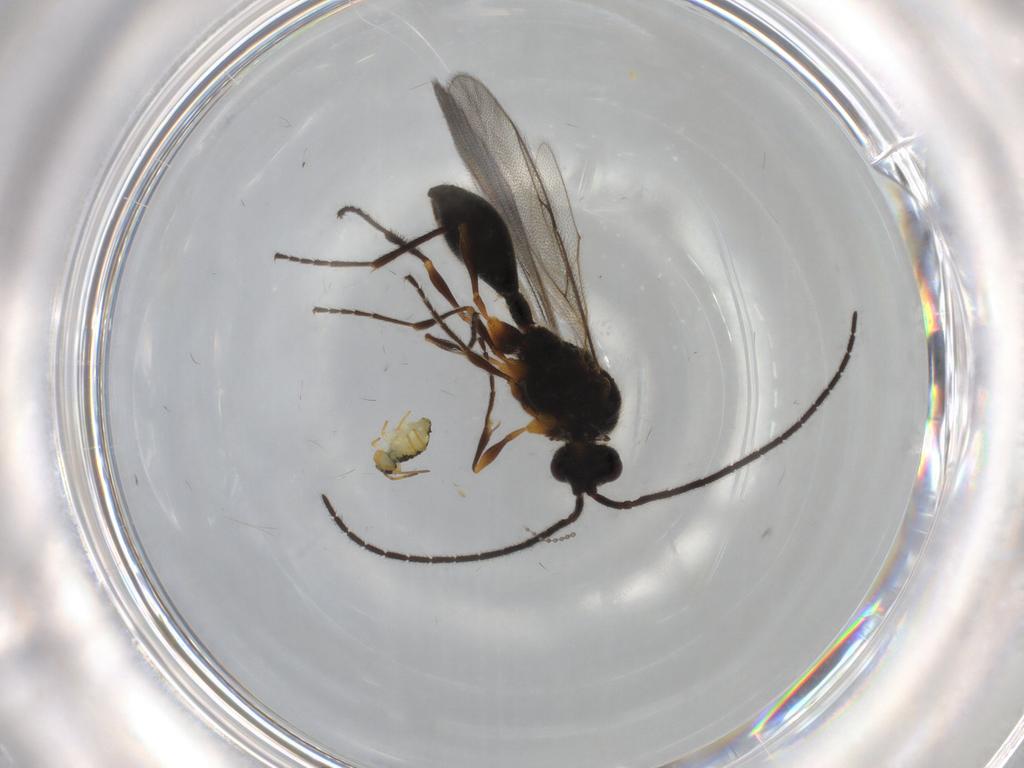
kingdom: Animalia
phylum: Arthropoda
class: Insecta
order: Hymenoptera
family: Diapriidae
